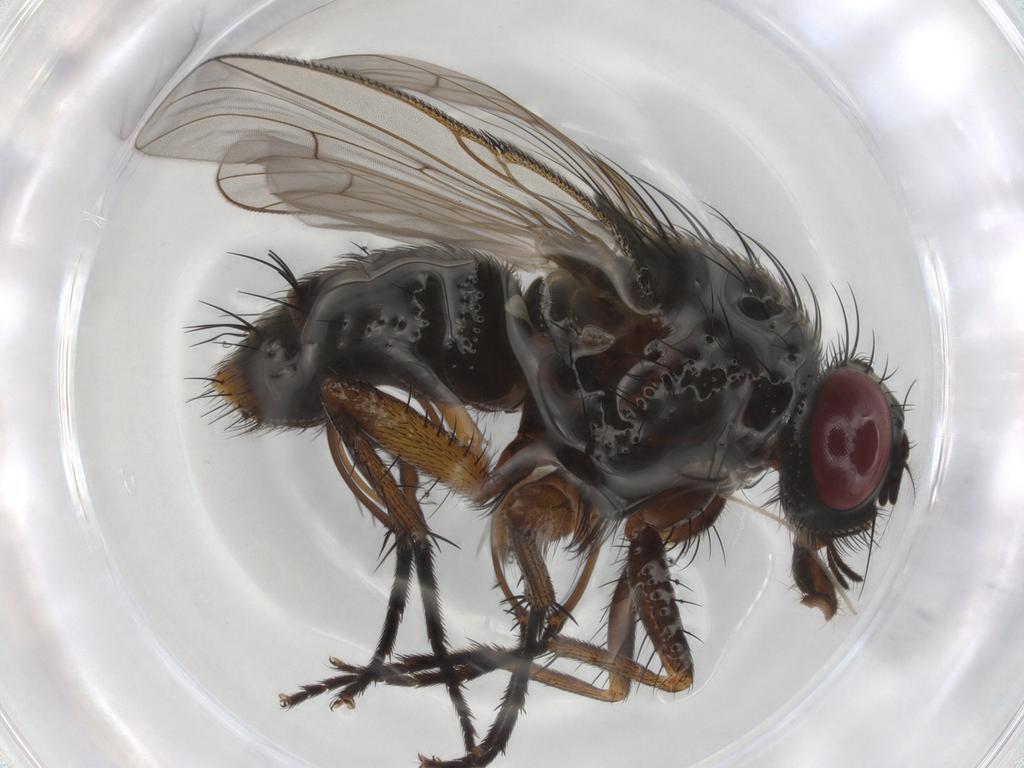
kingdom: Animalia
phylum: Arthropoda
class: Insecta
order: Diptera
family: Muscidae
